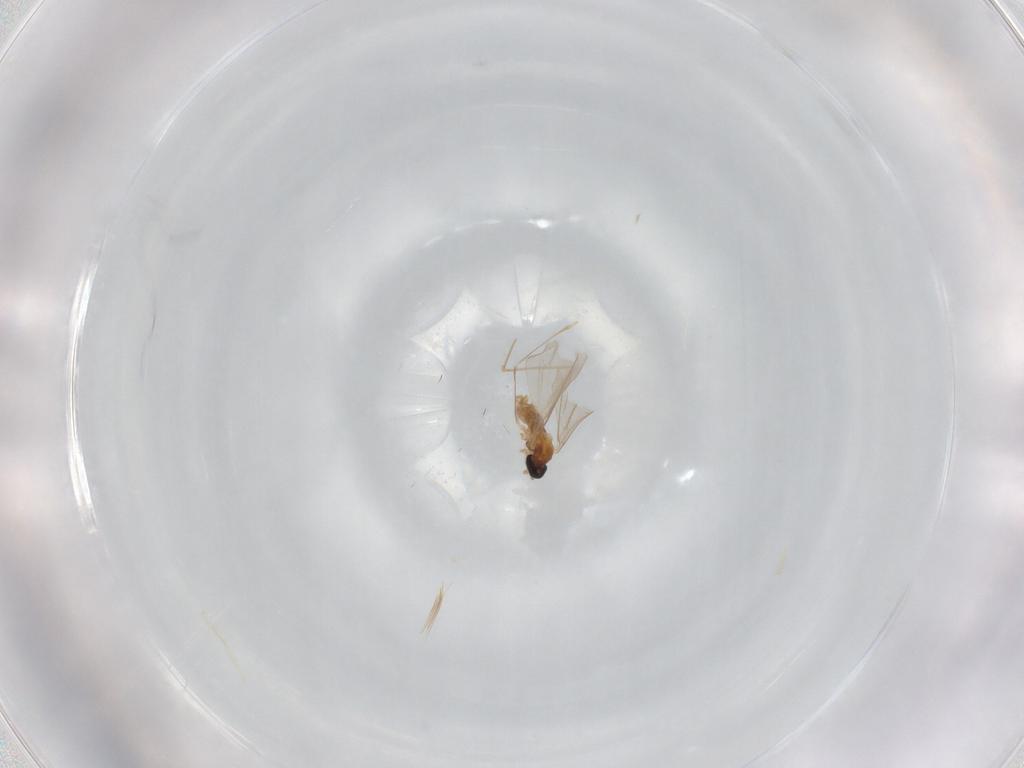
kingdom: Animalia
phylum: Arthropoda
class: Insecta
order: Diptera
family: Cecidomyiidae
